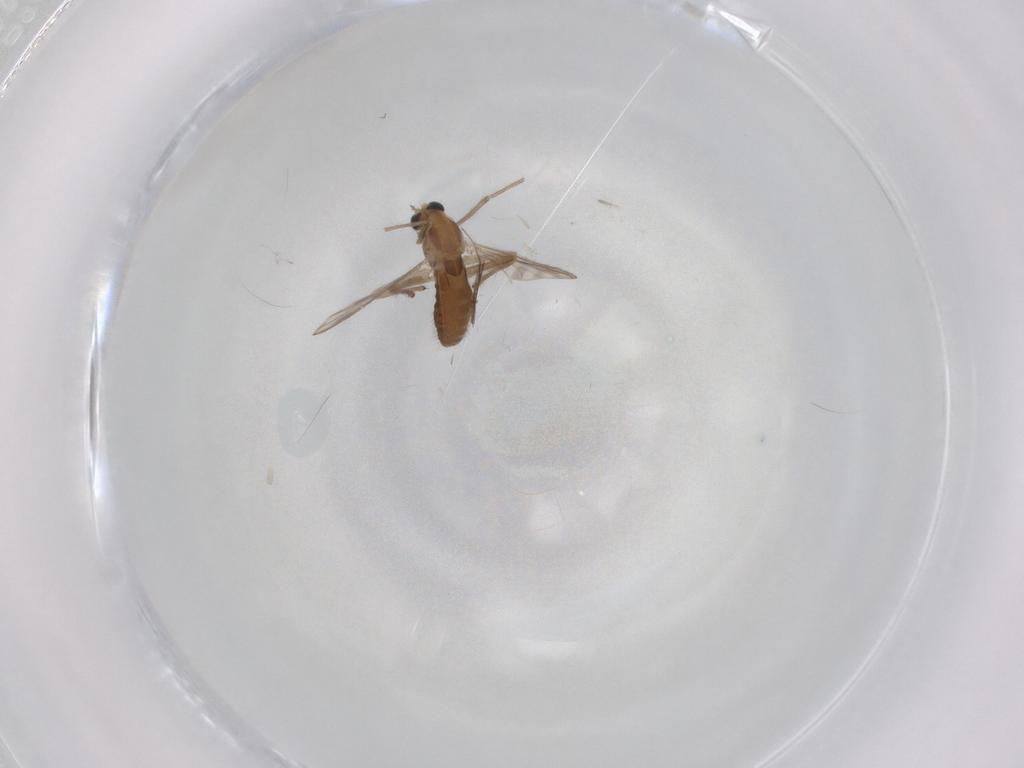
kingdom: Animalia
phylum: Arthropoda
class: Insecta
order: Diptera
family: Chironomidae
